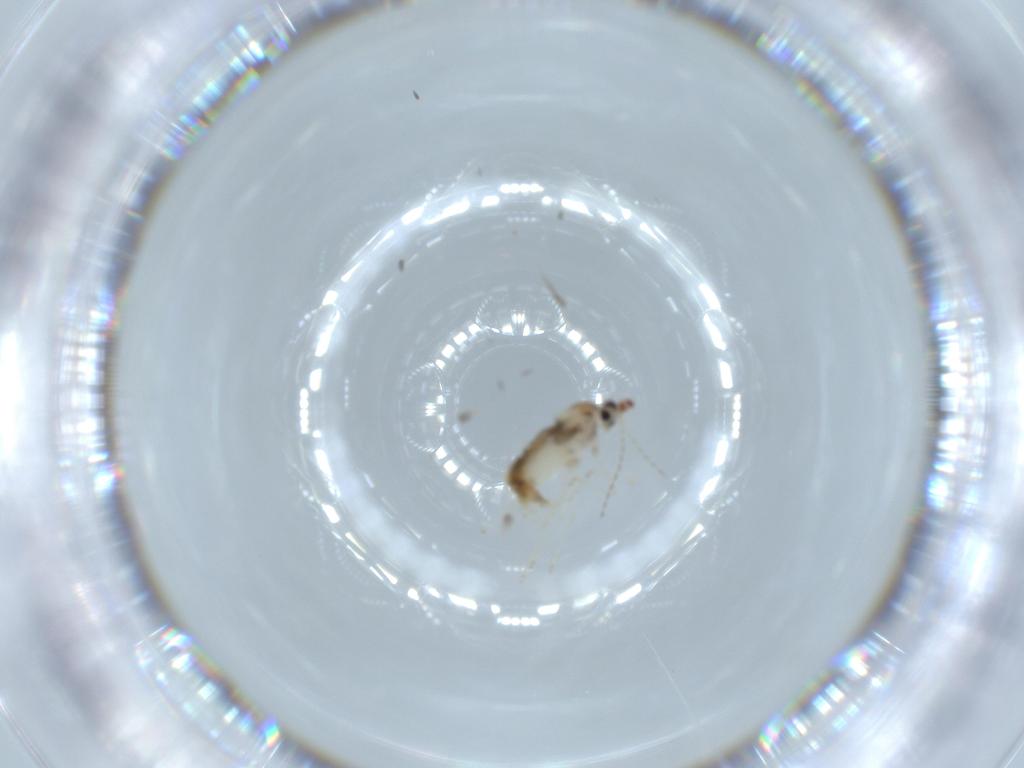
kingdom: Animalia
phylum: Arthropoda
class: Insecta
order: Diptera
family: Cecidomyiidae
